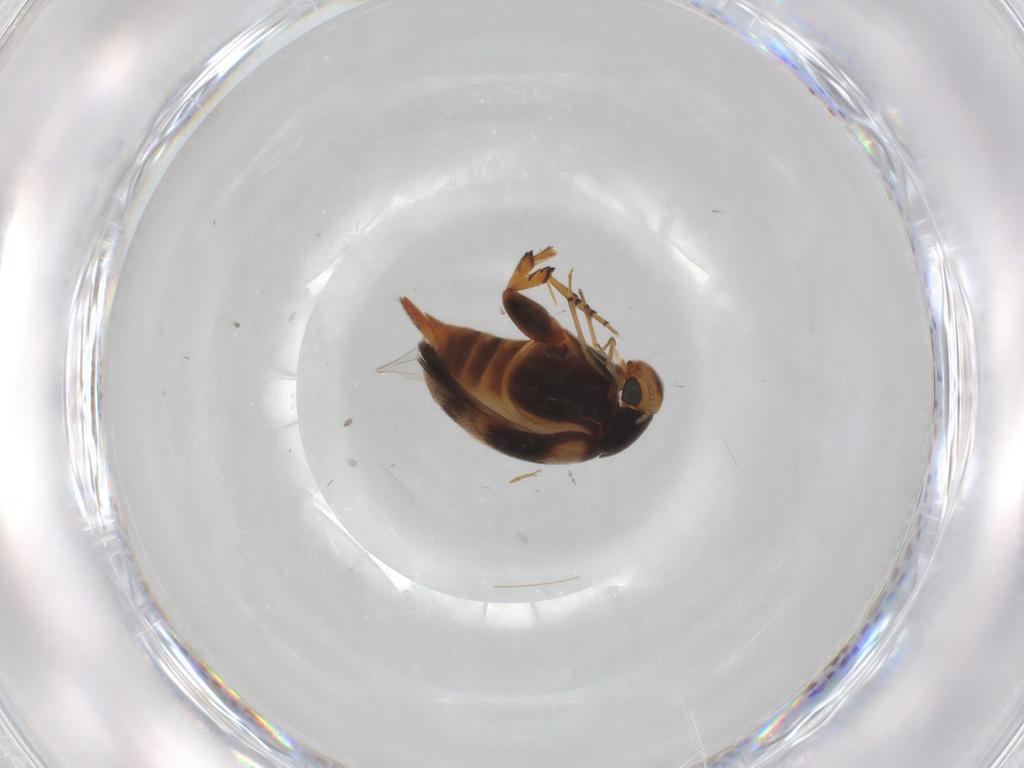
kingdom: Animalia
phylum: Arthropoda
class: Insecta
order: Coleoptera
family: Mordellidae
